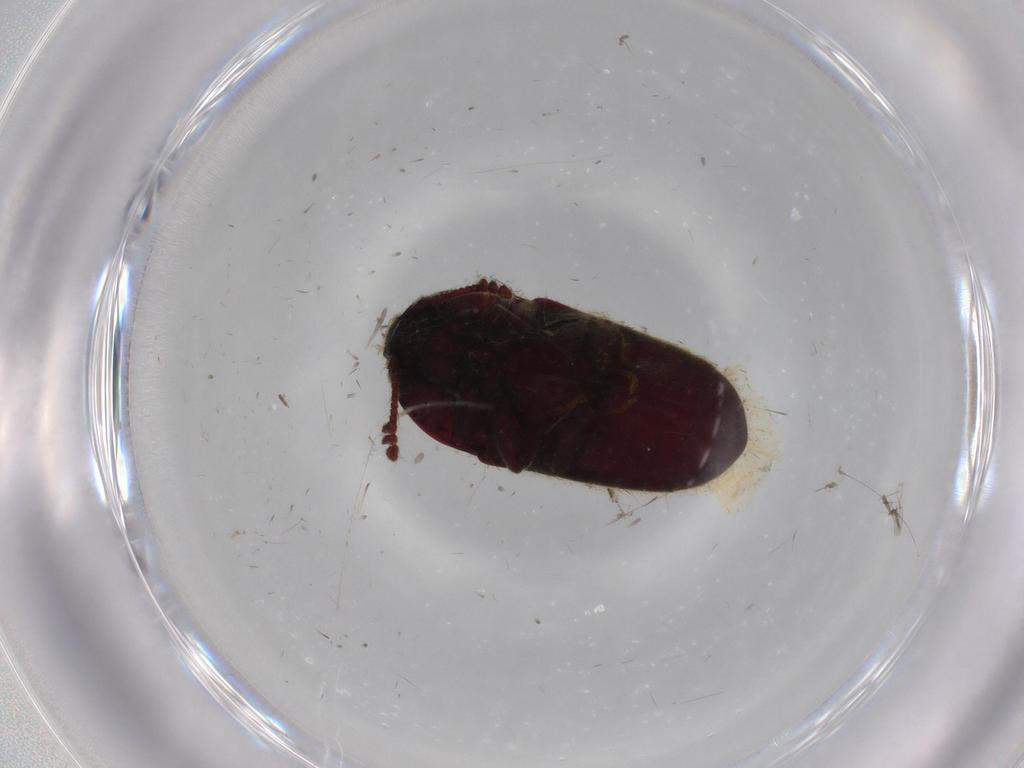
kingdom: Animalia
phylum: Arthropoda
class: Insecta
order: Coleoptera
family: Throscidae
